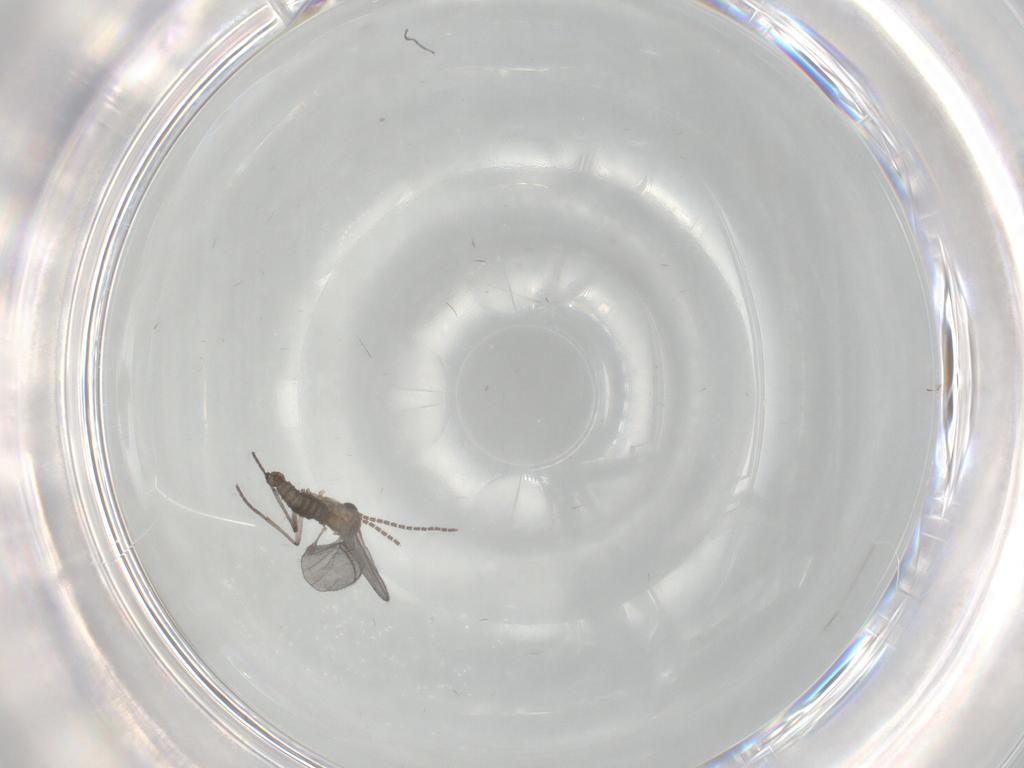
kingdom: Animalia
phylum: Arthropoda
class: Insecta
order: Diptera
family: Sciaridae
